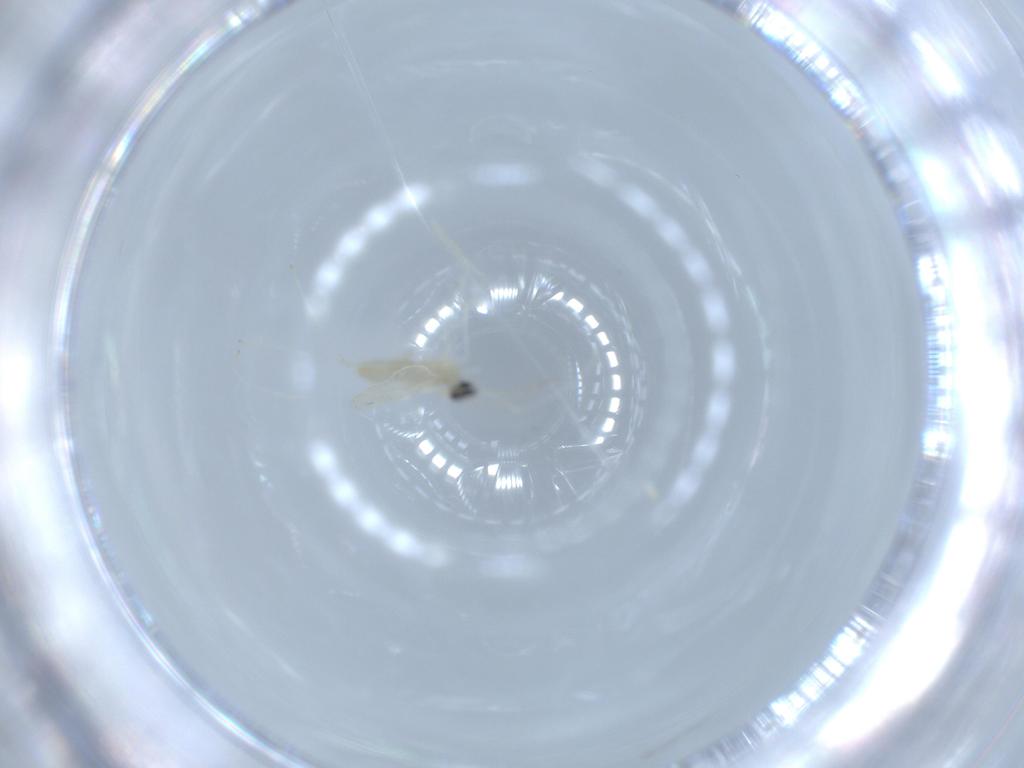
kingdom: Animalia
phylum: Arthropoda
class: Insecta
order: Diptera
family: Cecidomyiidae
